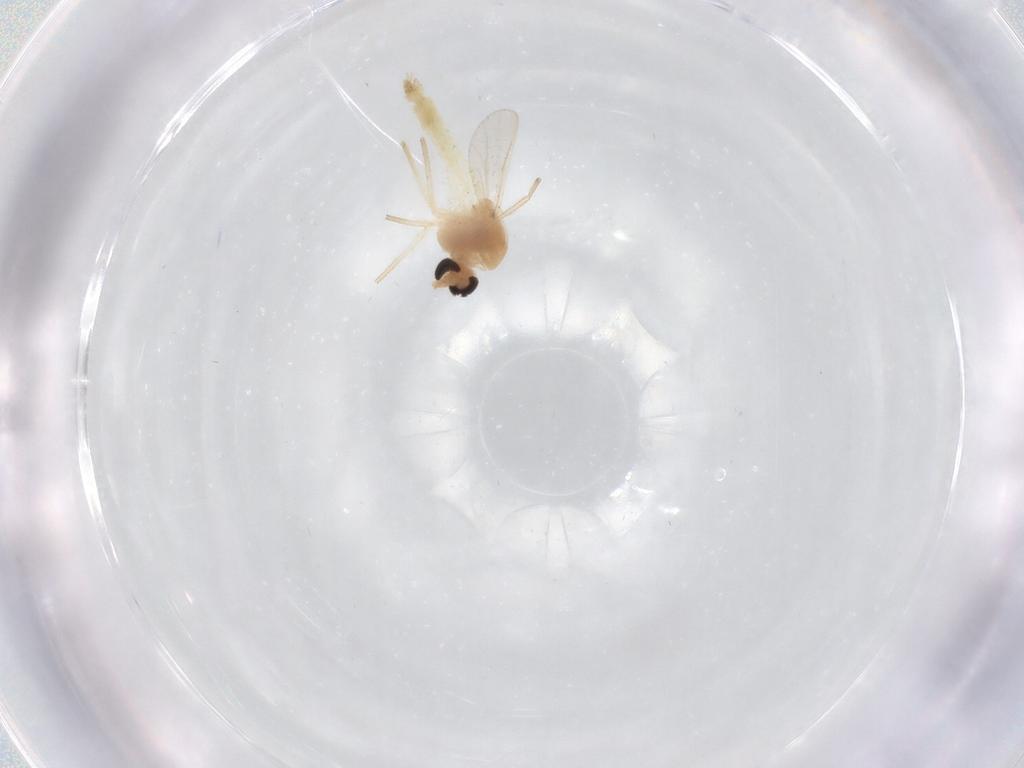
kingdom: Animalia
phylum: Arthropoda
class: Insecta
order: Diptera
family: Chironomidae
